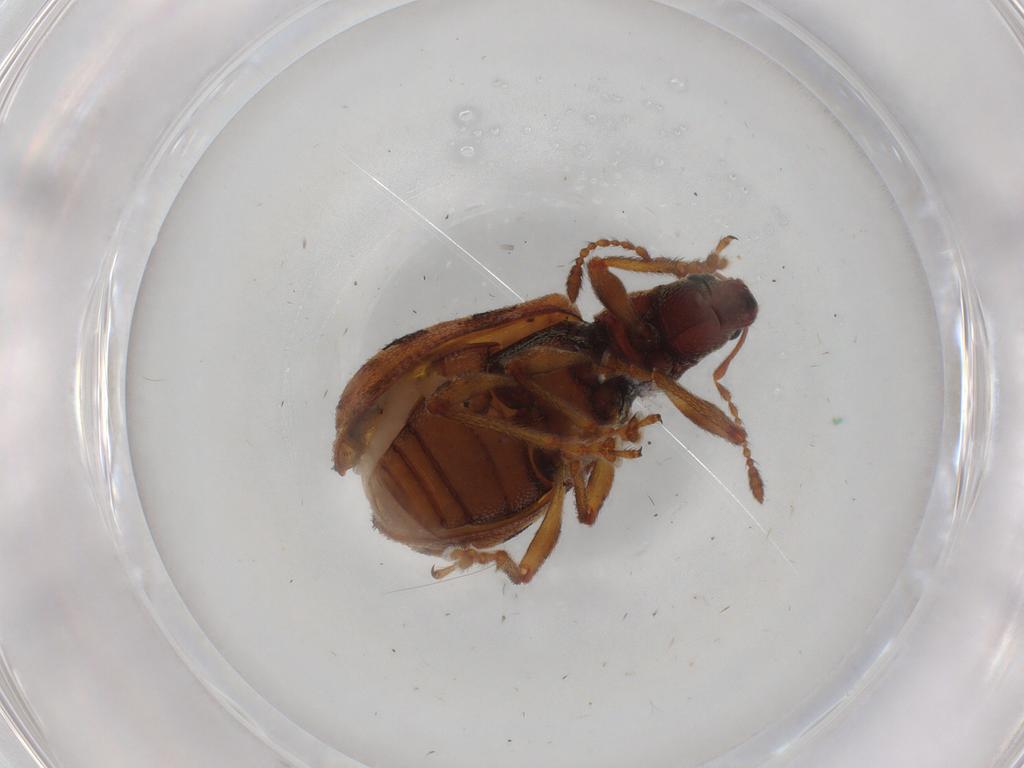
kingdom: Animalia
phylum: Arthropoda
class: Insecta
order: Coleoptera
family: Curculionidae
